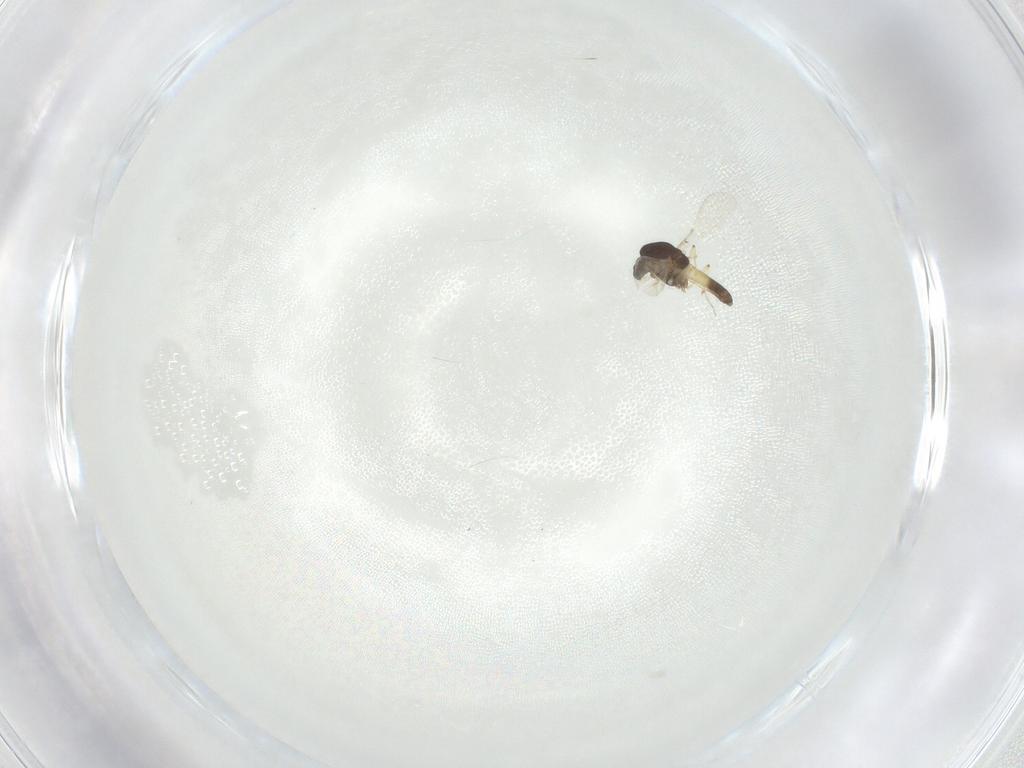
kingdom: Animalia
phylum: Arthropoda
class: Insecta
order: Diptera
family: Chironomidae
